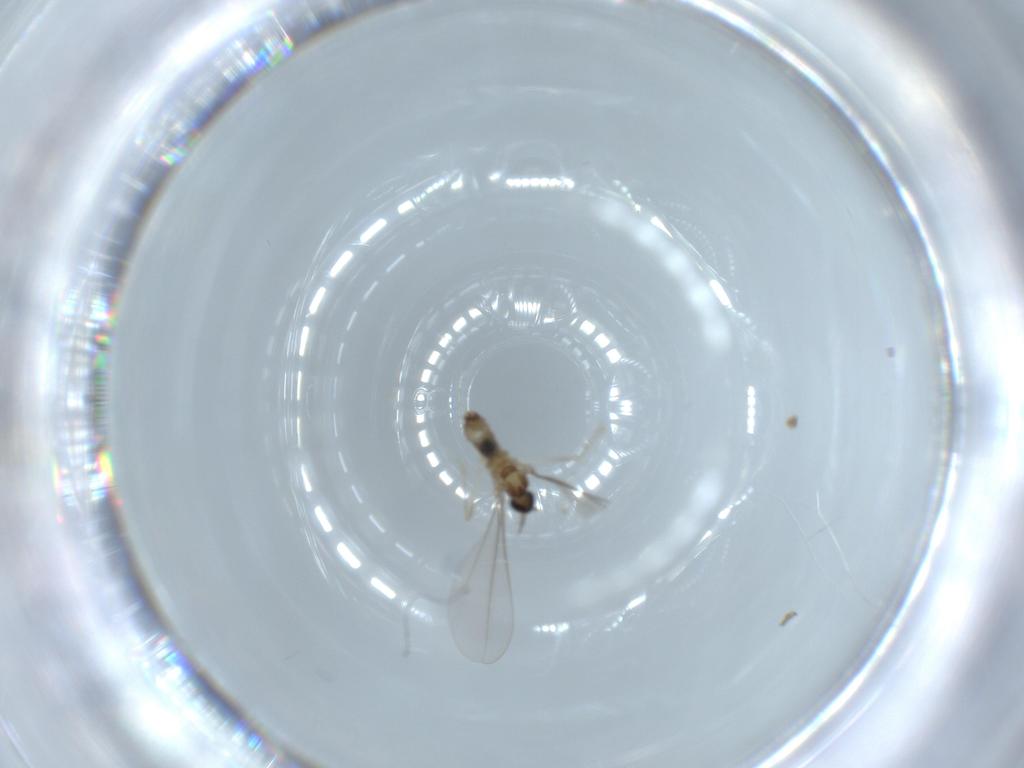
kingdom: Animalia
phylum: Arthropoda
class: Insecta
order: Diptera
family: Cecidomyiidae
